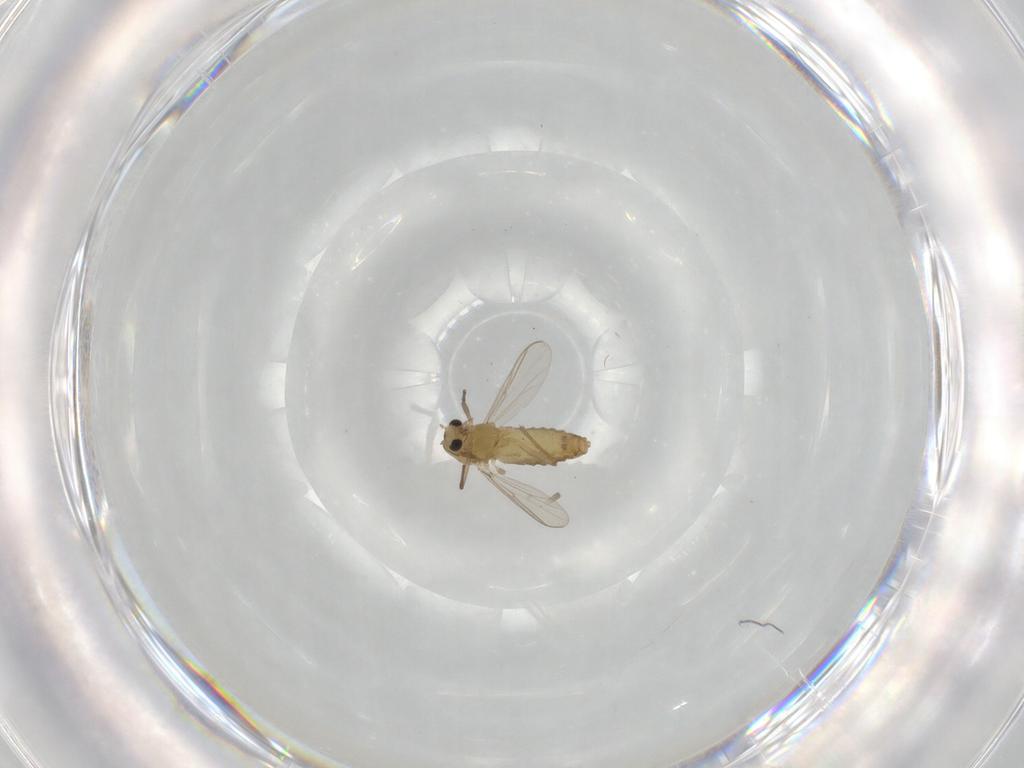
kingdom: Animalia
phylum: Arthropoda
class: Insecta
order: Diptera
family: Chironomidae
